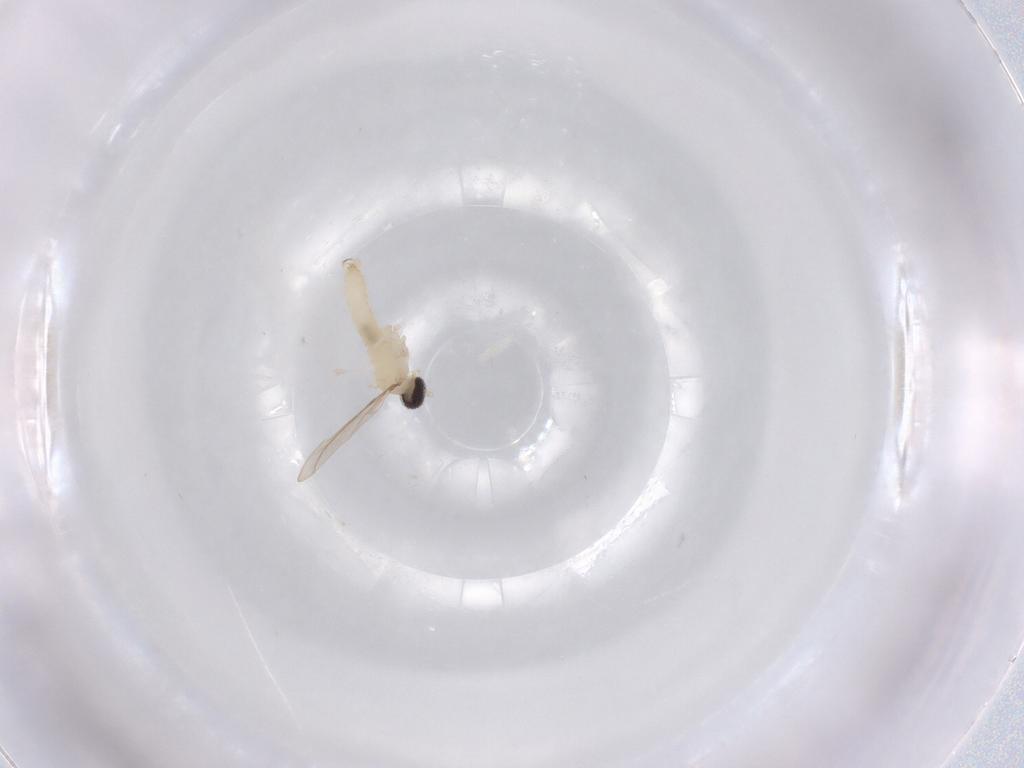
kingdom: Animalia
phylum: Arthropoda
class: Insecta
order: Diptera
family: Cecidomyiidae
